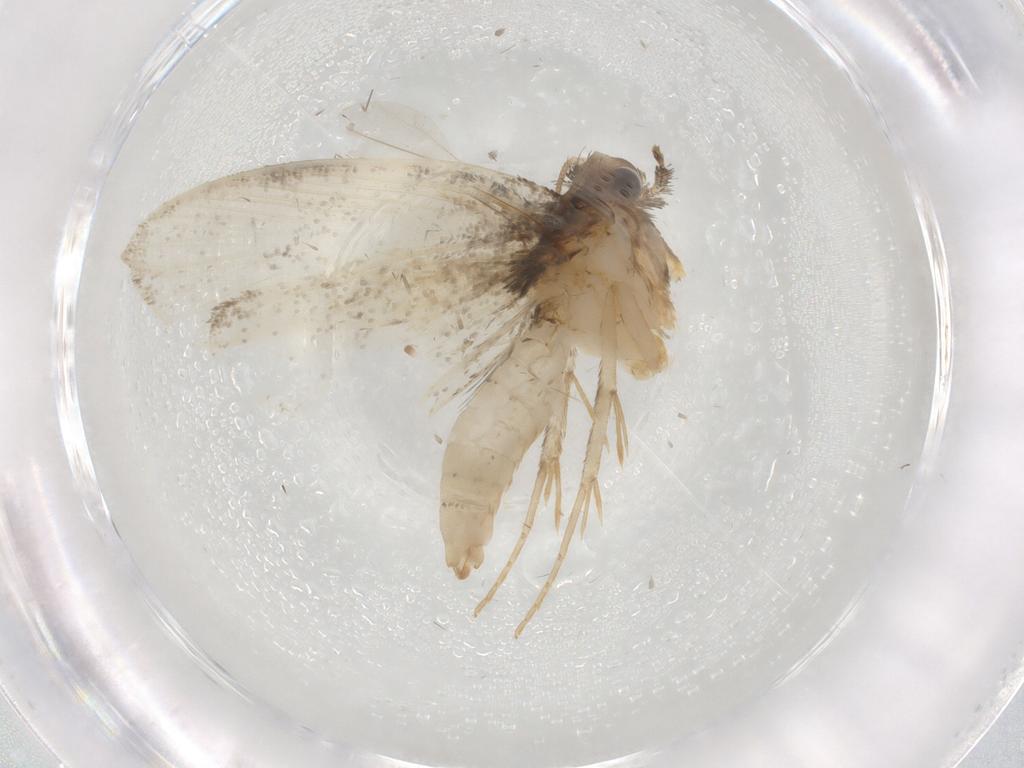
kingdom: Animalia
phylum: Arthropoda
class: Insecta
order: Lepidoptera
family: Psychidae
